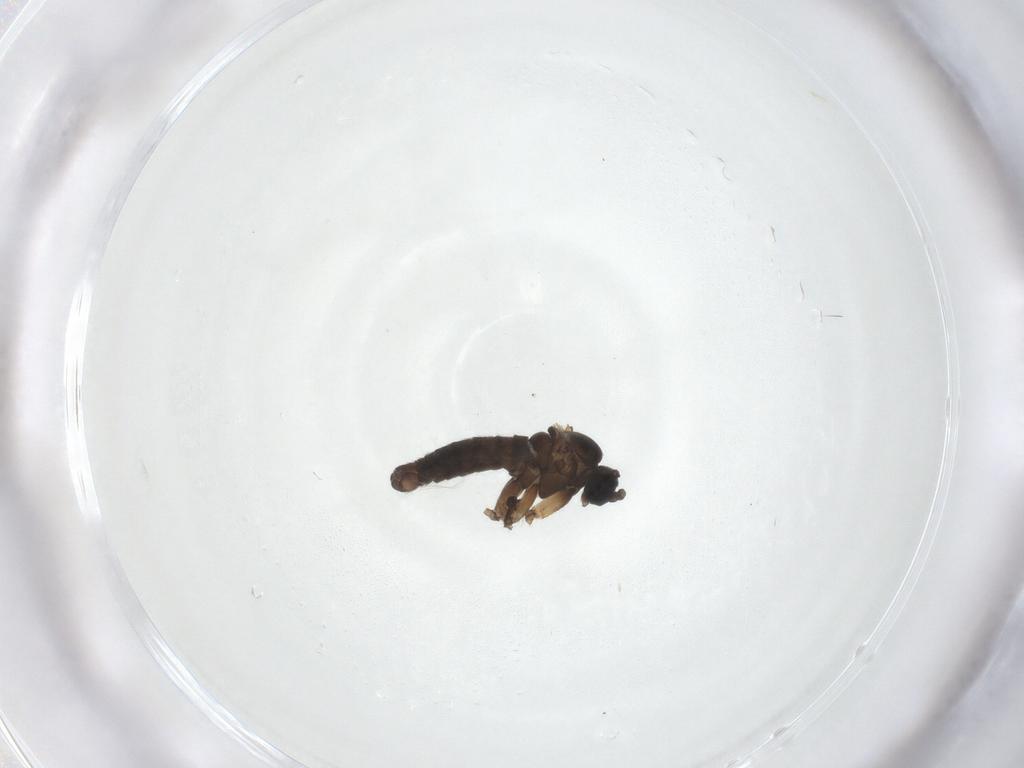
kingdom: Animalia
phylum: Arthropoda
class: Insecta
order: Diptera
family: Sciaridae
